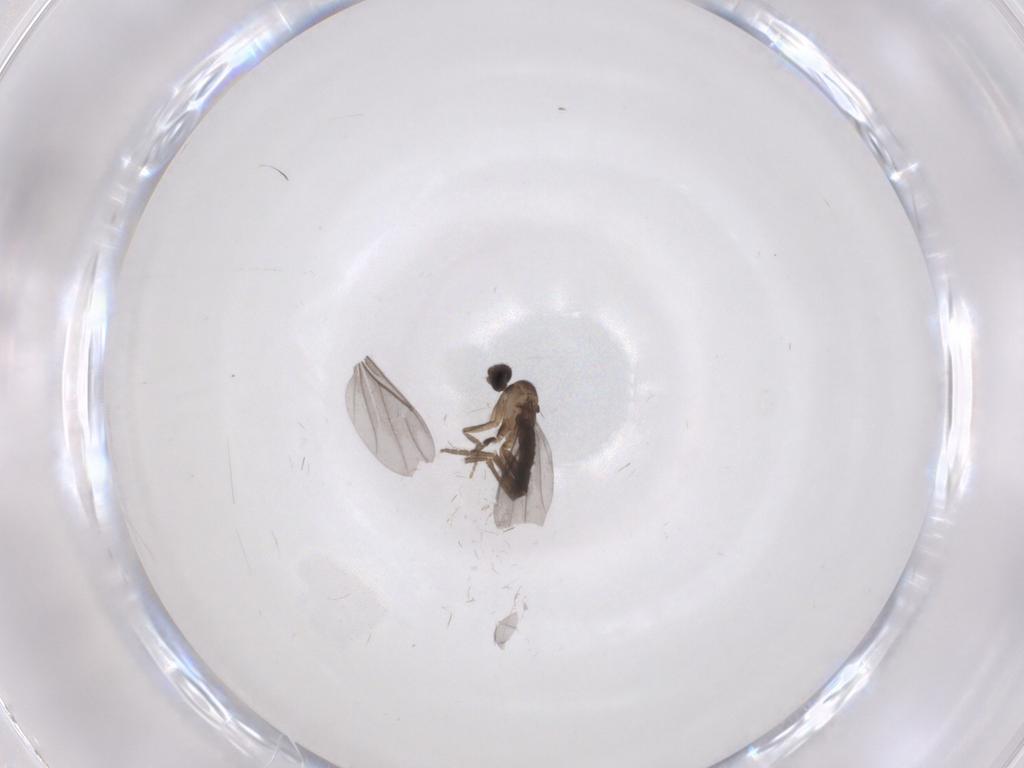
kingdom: Animalia
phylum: Arthropoda
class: Insecta
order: Diptera
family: Phoridae
